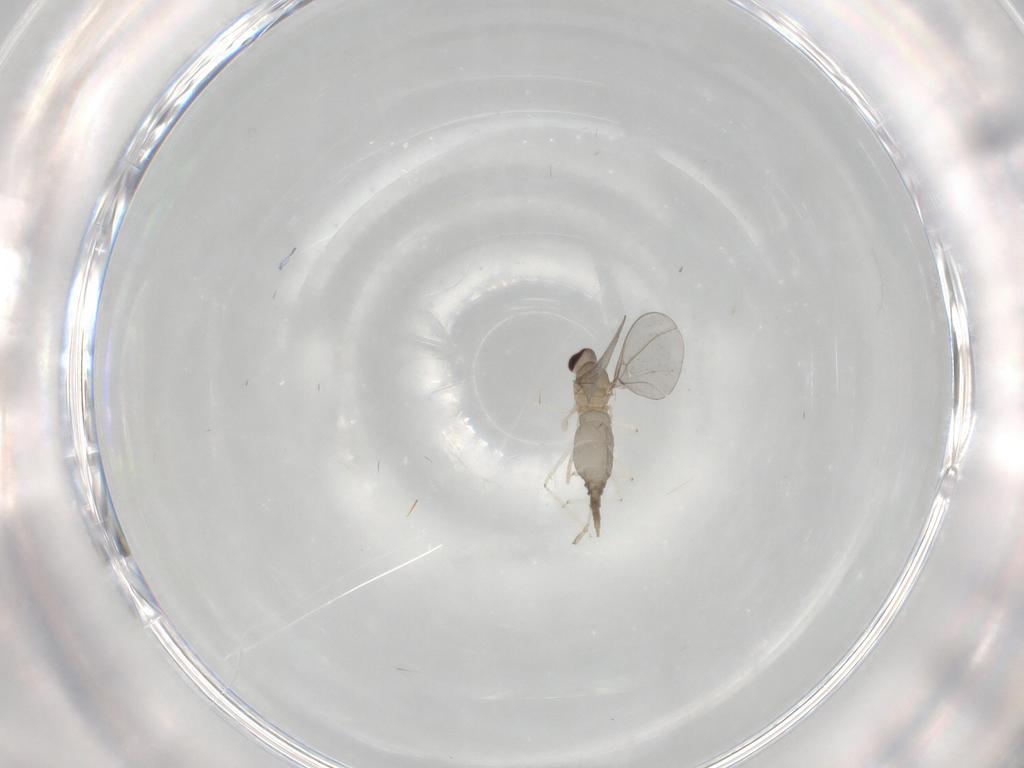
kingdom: Animalia
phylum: Arthropoda
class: Insecta
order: Diptera
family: Cecidomyiidae
